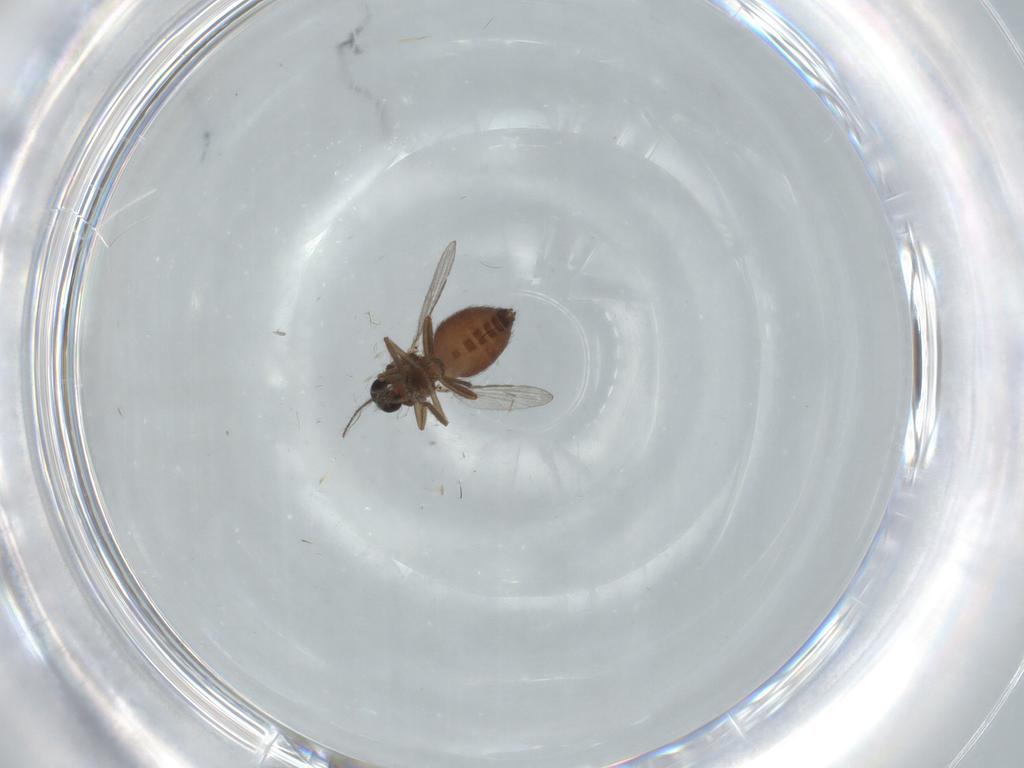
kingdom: Animalia
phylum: Arthropoda
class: Insecta
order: Diptera
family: Ceratopogonidae
